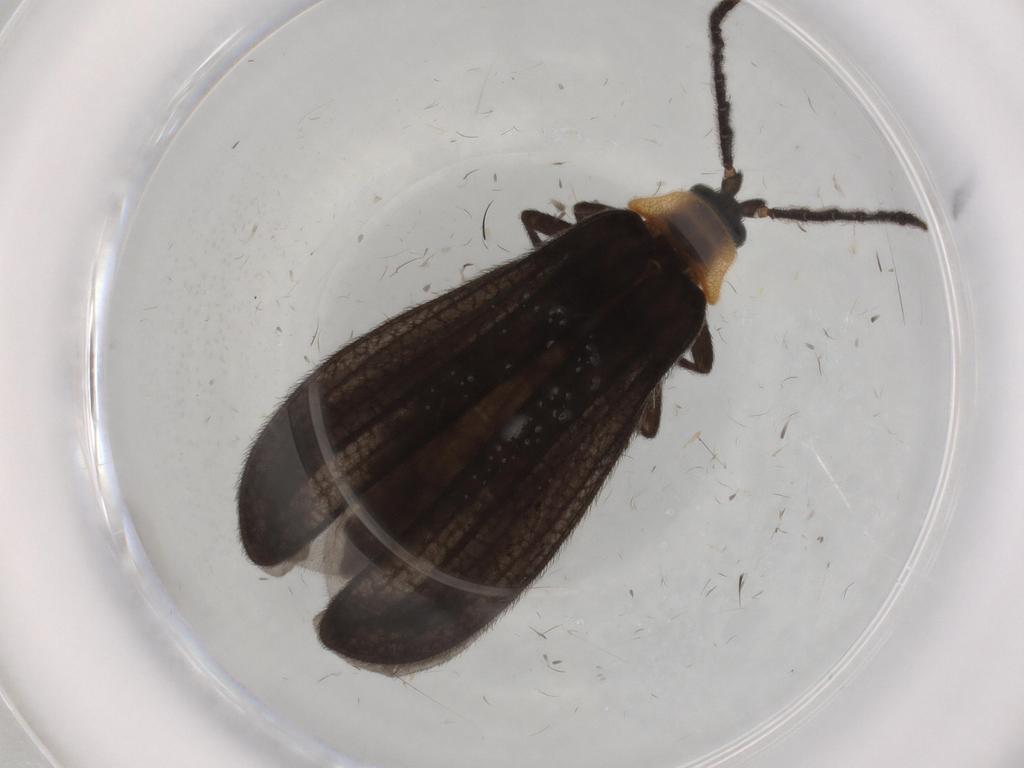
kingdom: Animalia
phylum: Arthropoda
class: Insecta
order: Coleoptera
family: Lycidae
